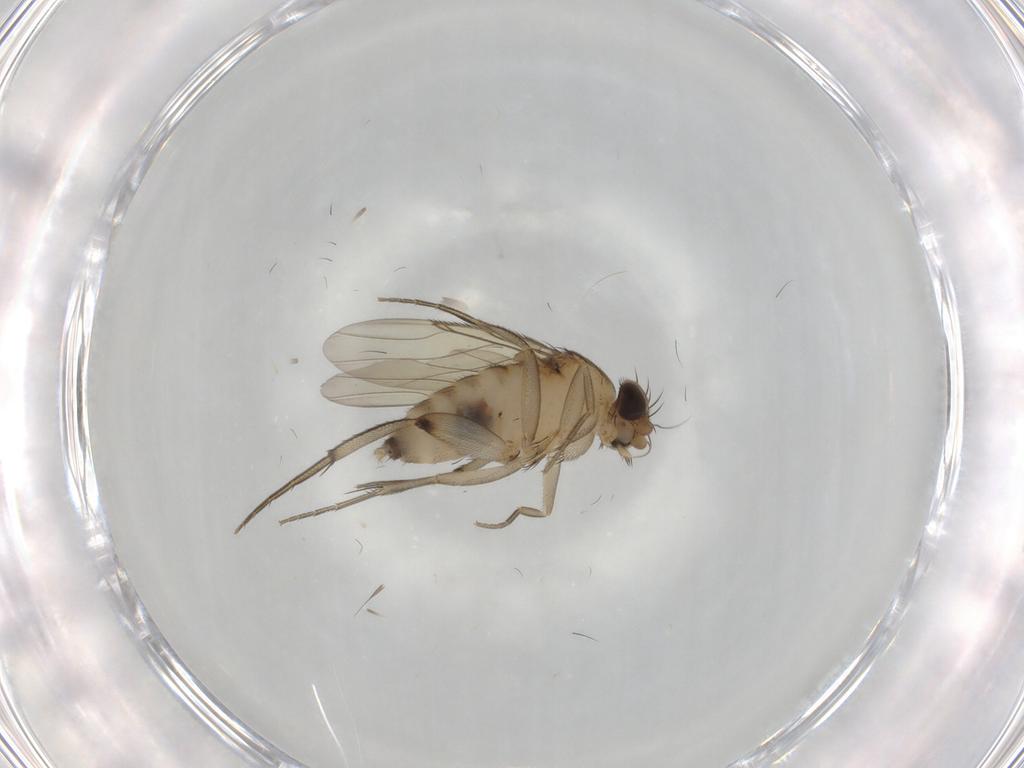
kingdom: Animalia
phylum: Arthropoda
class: Insecta
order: Diptera
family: Phoridae
